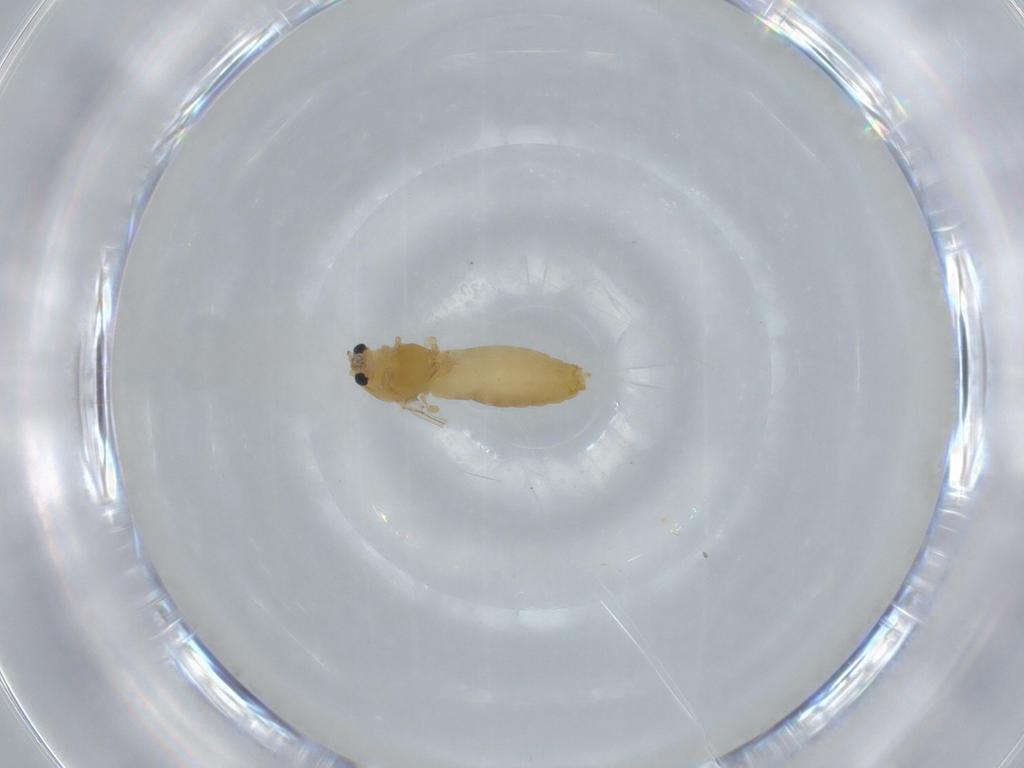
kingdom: Animalia
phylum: Arthropoda
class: Insecta
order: Diptera
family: Chironomidae
